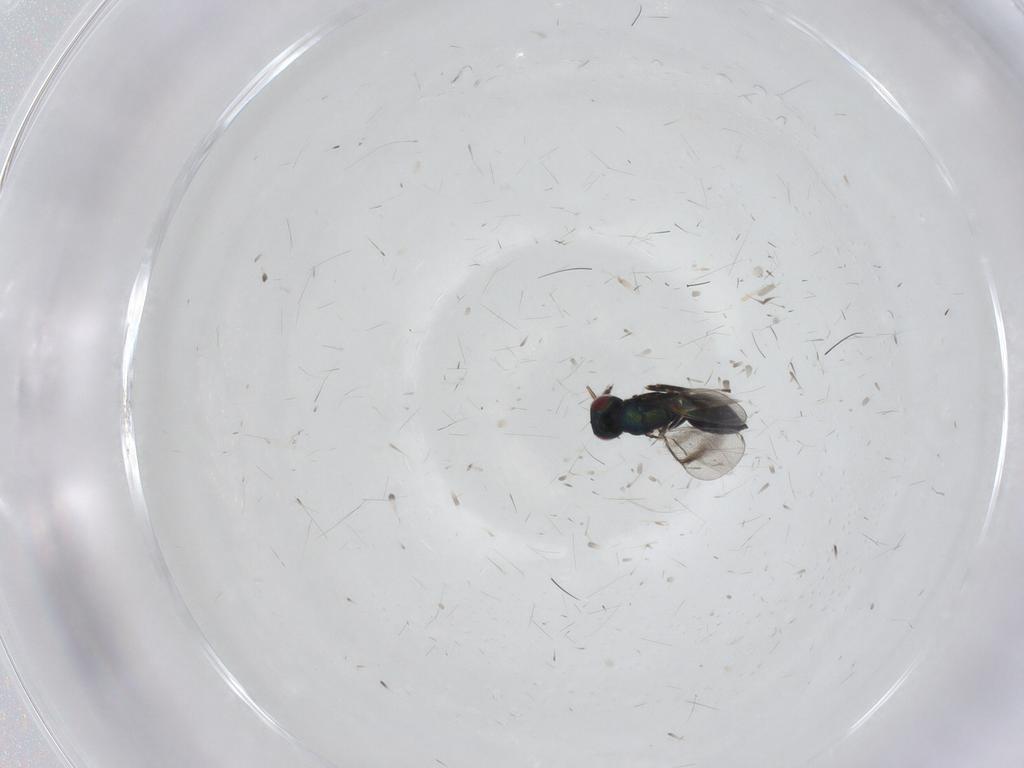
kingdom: Animalia
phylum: Arthropoda
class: Insecta
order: Hymenoptera
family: Eulophidae
